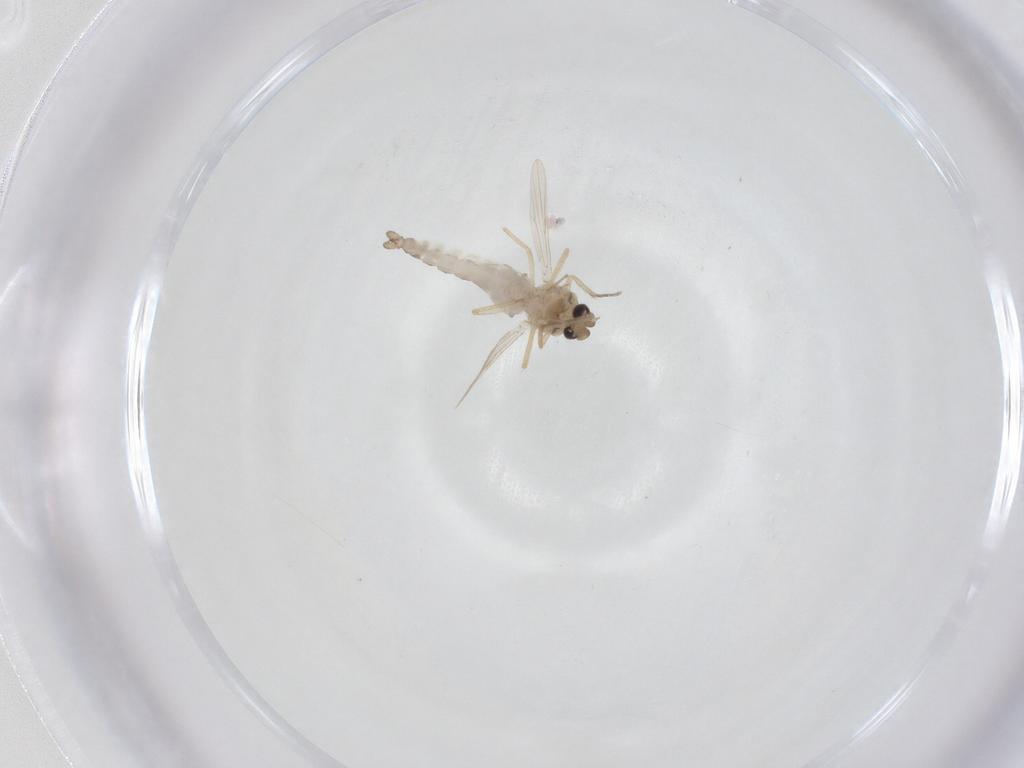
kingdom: Animalia
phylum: Arthropoda
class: Insecta
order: Diptera
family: Ceratopogonidae
